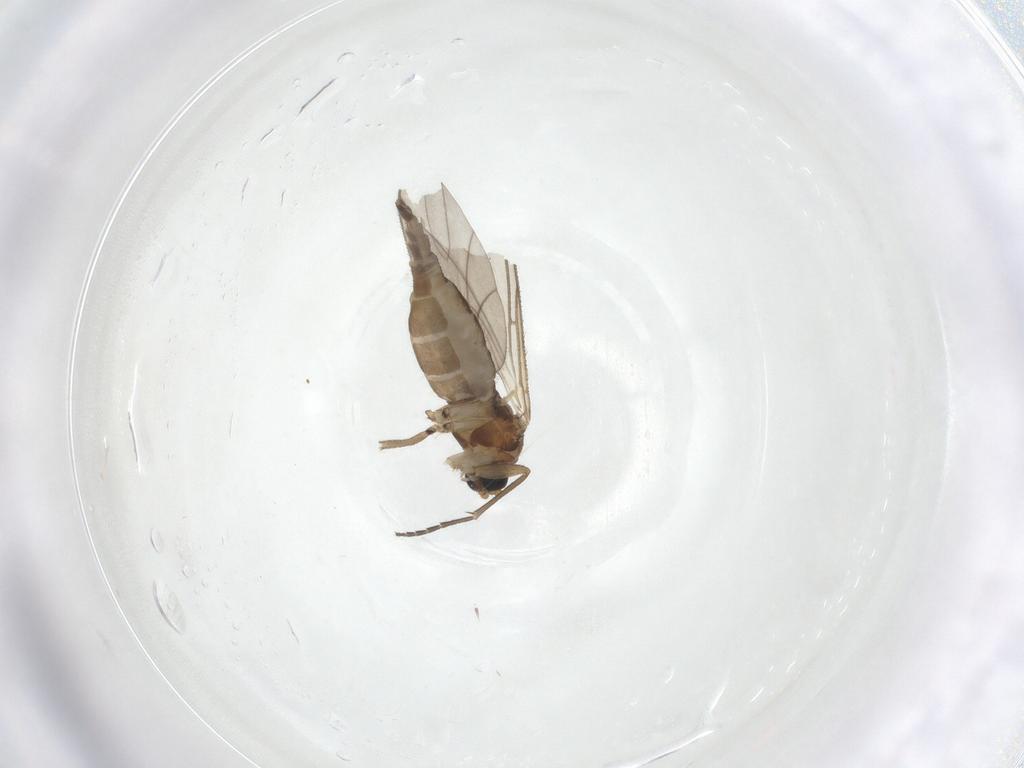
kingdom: Animalia
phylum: Arthropoda
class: Insecta
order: Diptera
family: Sciaridae
